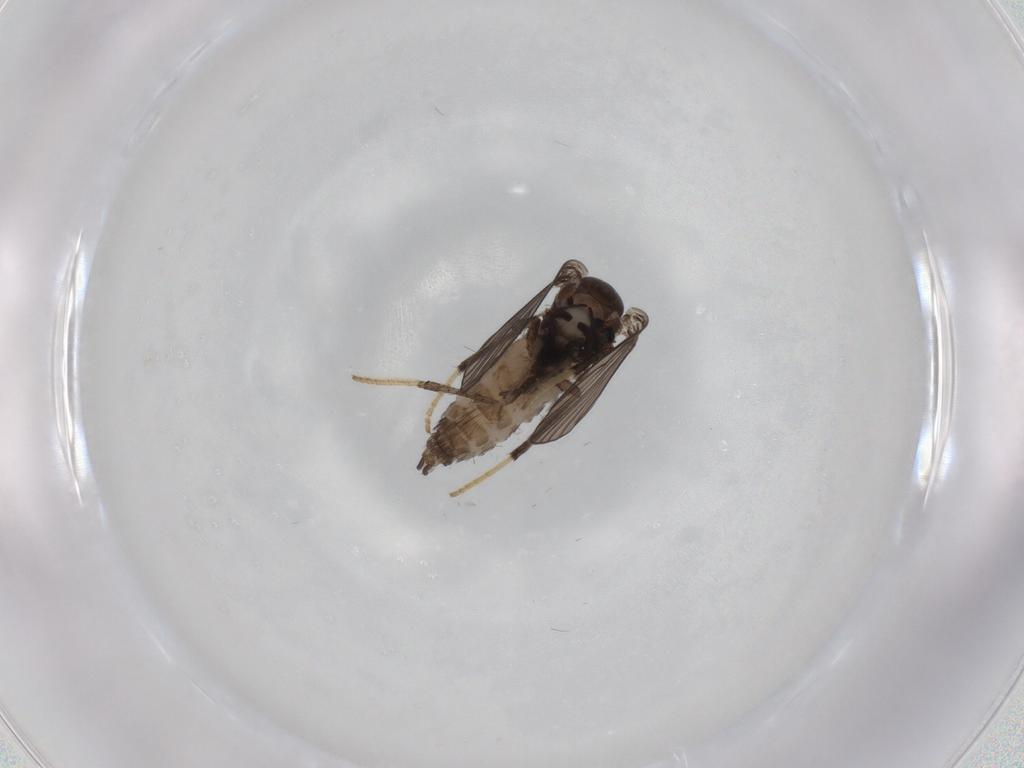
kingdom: Animalia
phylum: Arthropoda
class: Insecta
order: Diptera
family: Psychodidae
